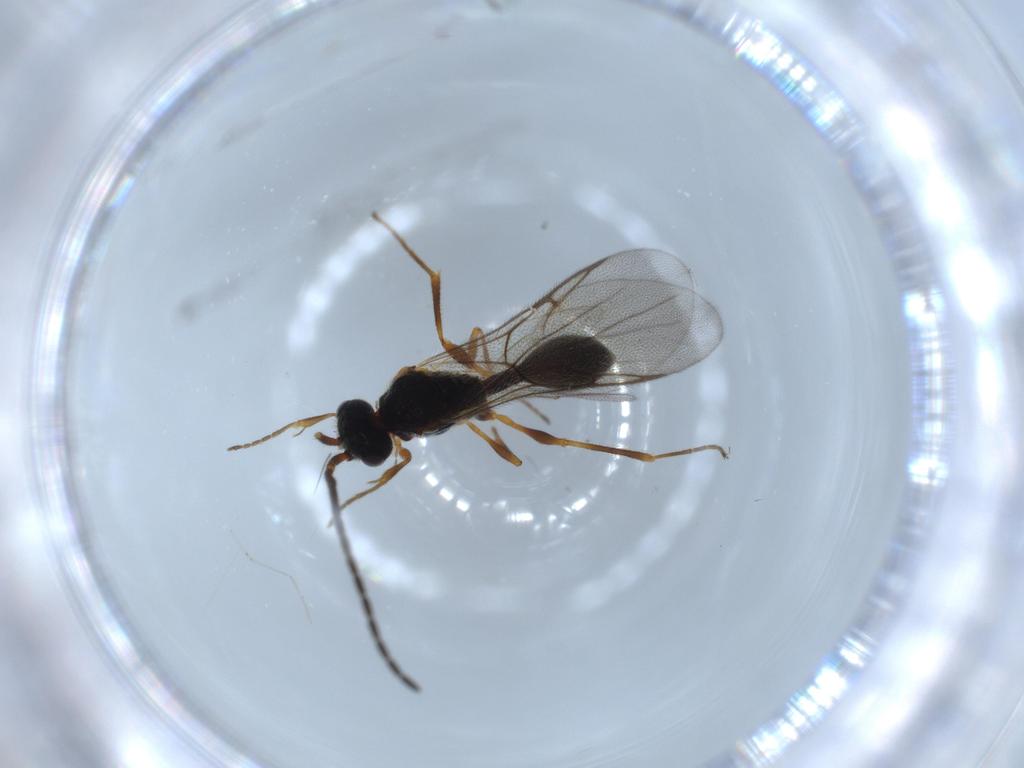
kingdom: Animalia
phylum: Arthropoda
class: Insecta
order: Hymenoptera
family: Diapriidae
